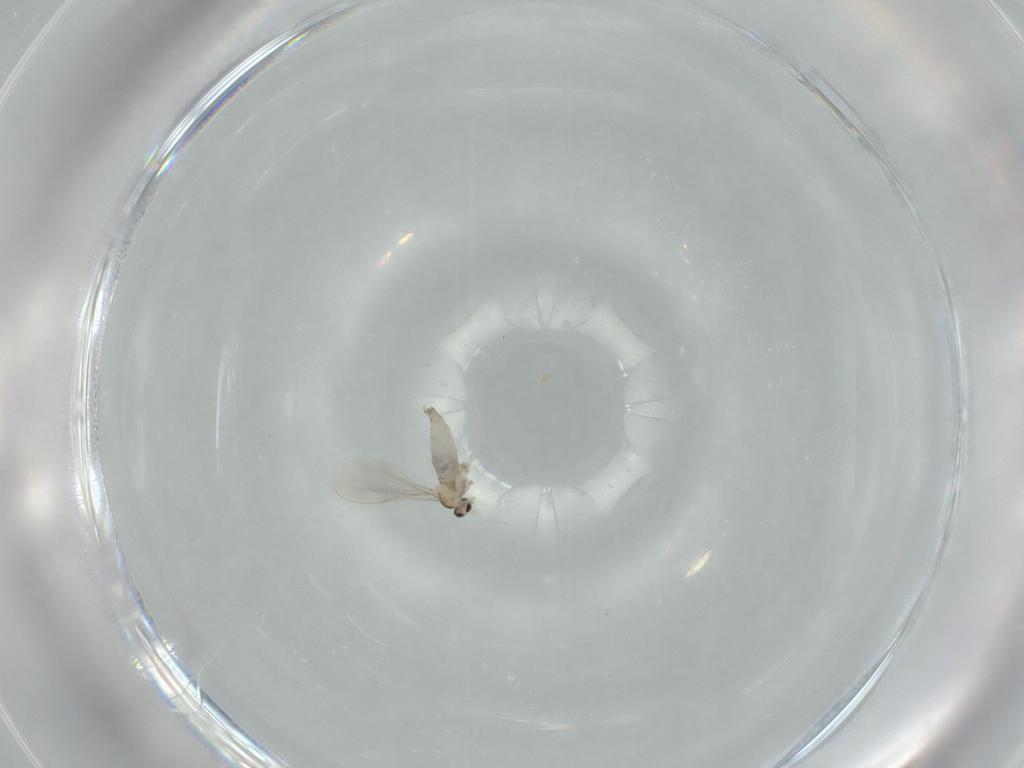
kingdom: Animalia
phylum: Arthropoda
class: Insecta
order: Diptera
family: Cecidomyiidae
